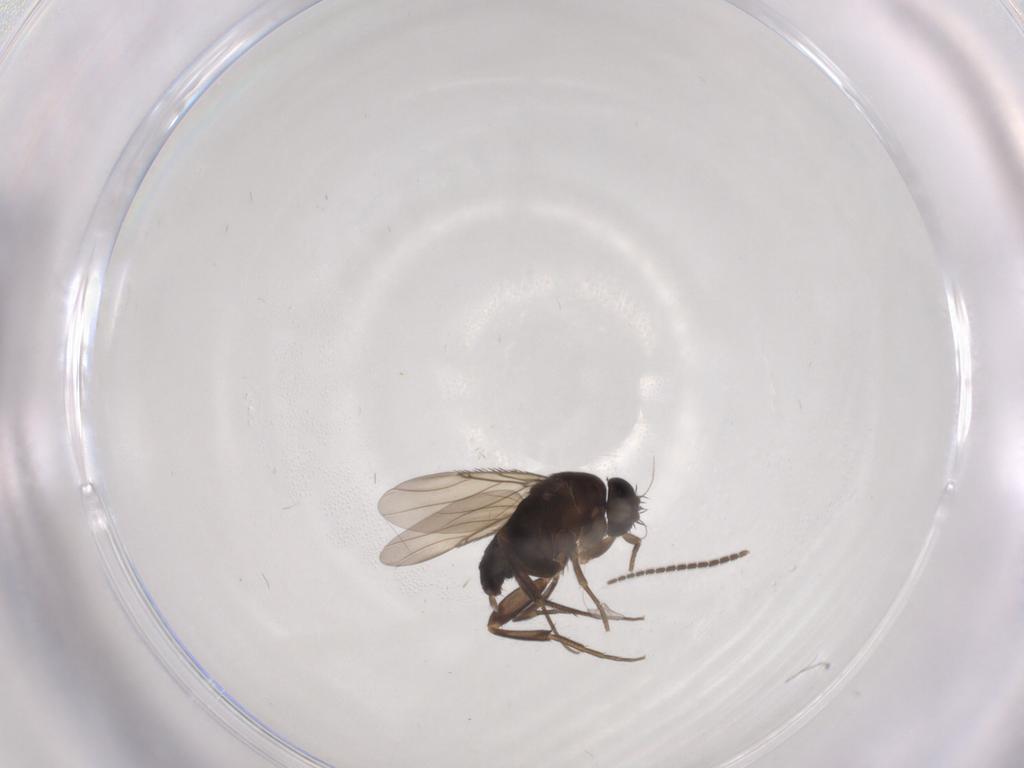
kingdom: Animalia
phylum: Arthropoda
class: Insecta
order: Diptera
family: Phoridae
